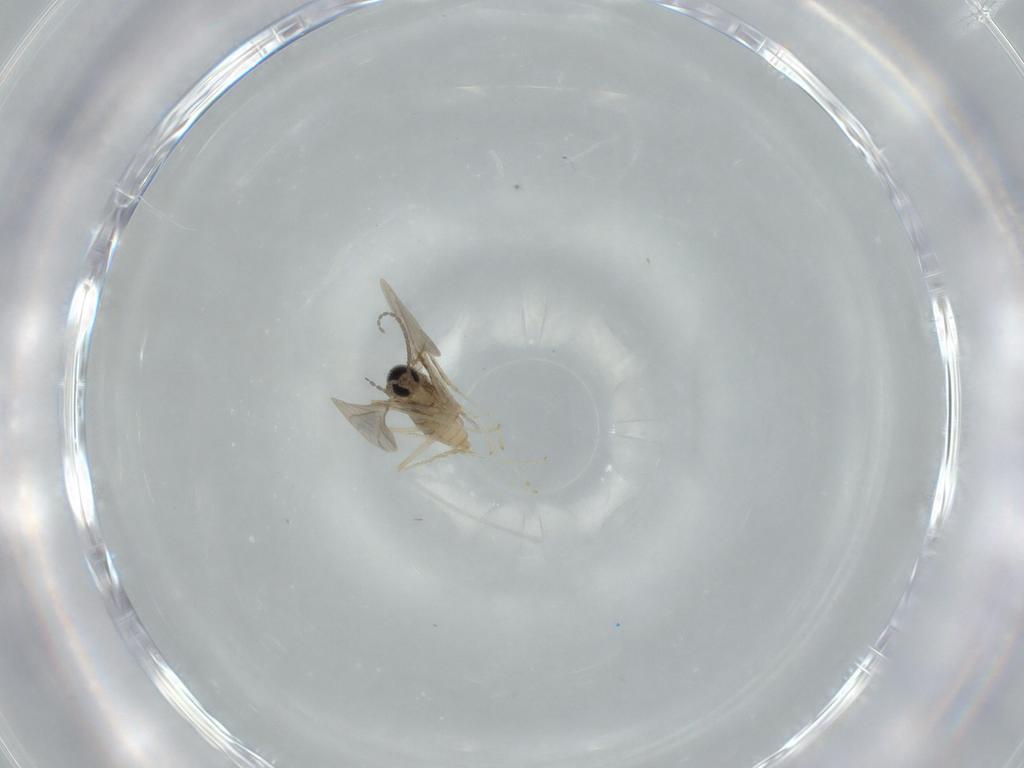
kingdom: Animalia
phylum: Arthropoda
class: Insecta
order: Diptera
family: Cecidomyiidae
